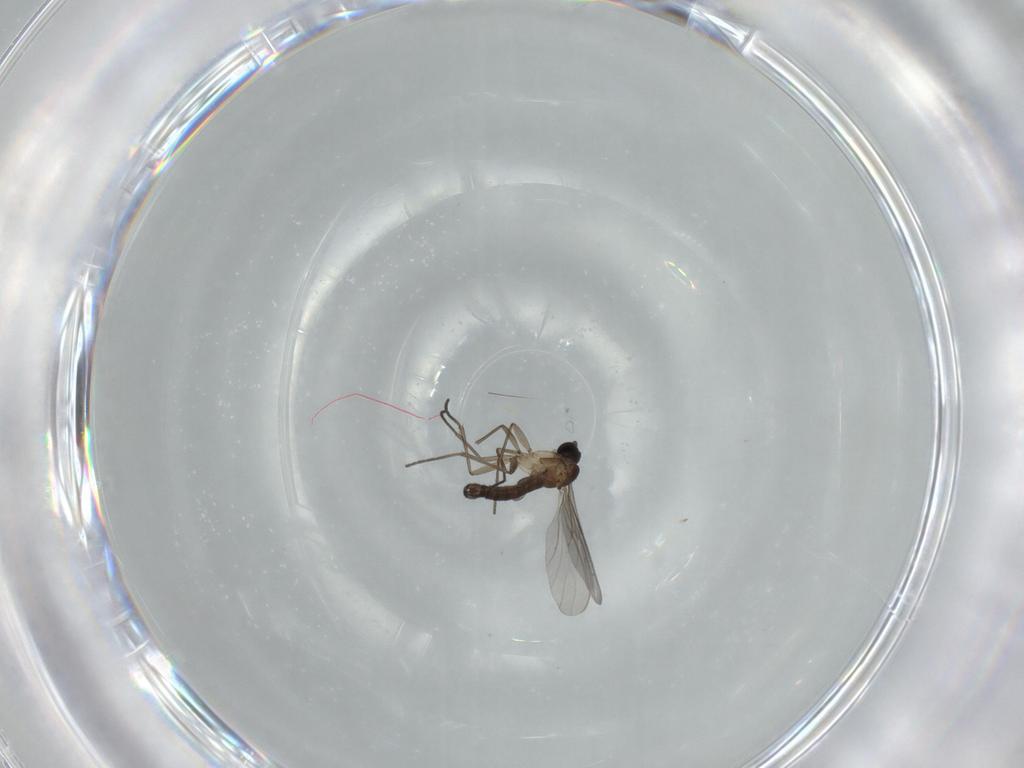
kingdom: Animalia
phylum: Arthropoda
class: Insecta
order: Diptera
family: Sciaridae
